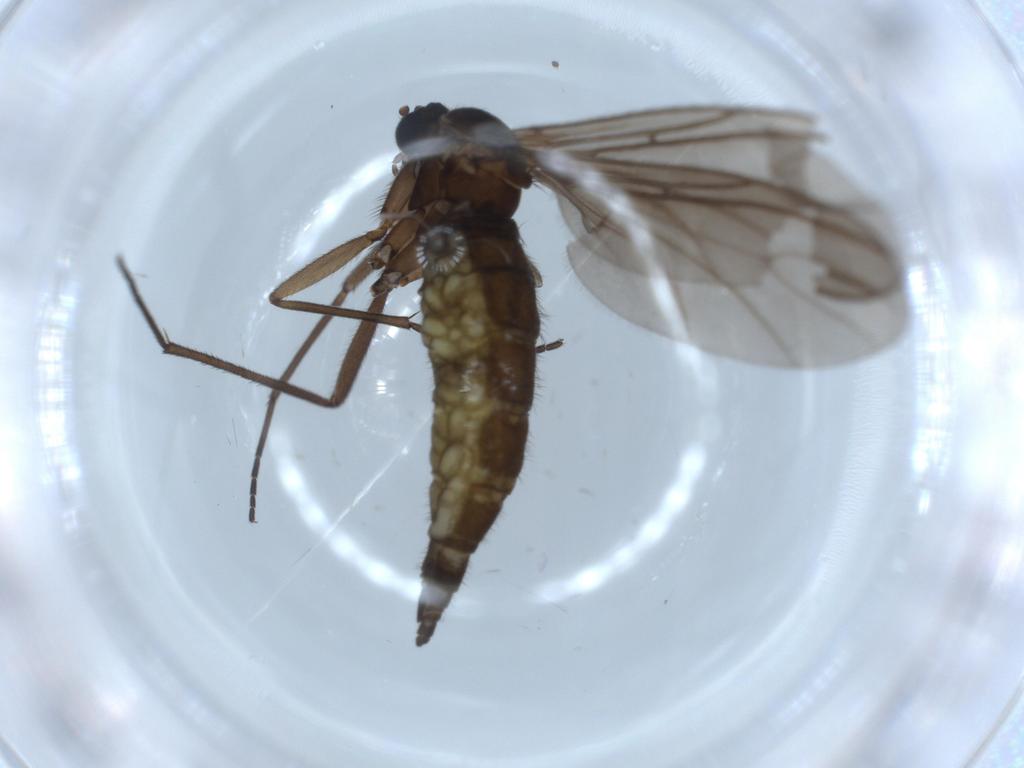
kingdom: Animalia
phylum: Arthropoda
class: Insecta
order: Diptera
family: Sciaridae
